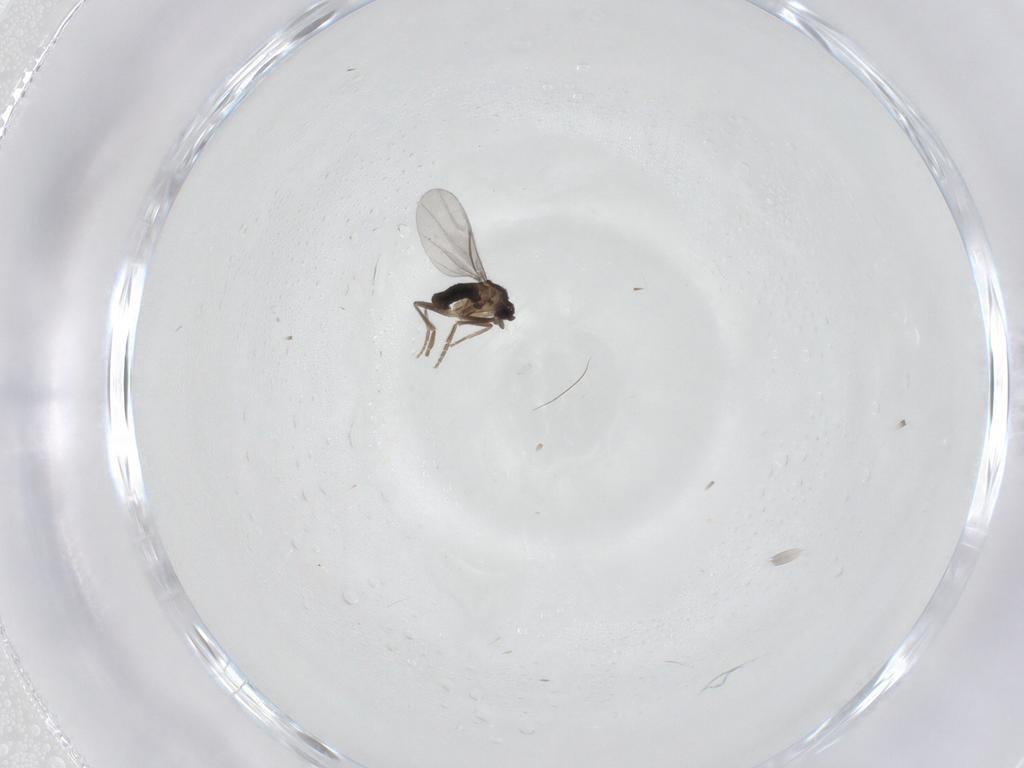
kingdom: Animalia
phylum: Arthropoda
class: Insecta
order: Diptera
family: Phoridae
